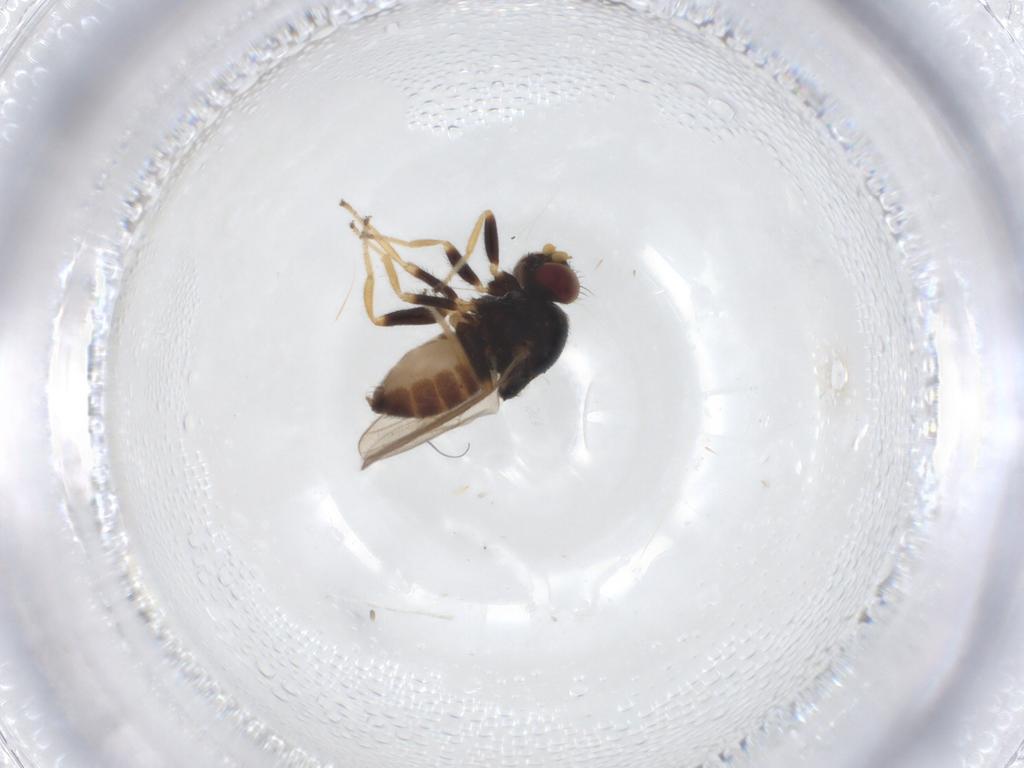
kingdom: Animalia
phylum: Arthropoda
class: Insecta
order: Diptera
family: Chloropidae
